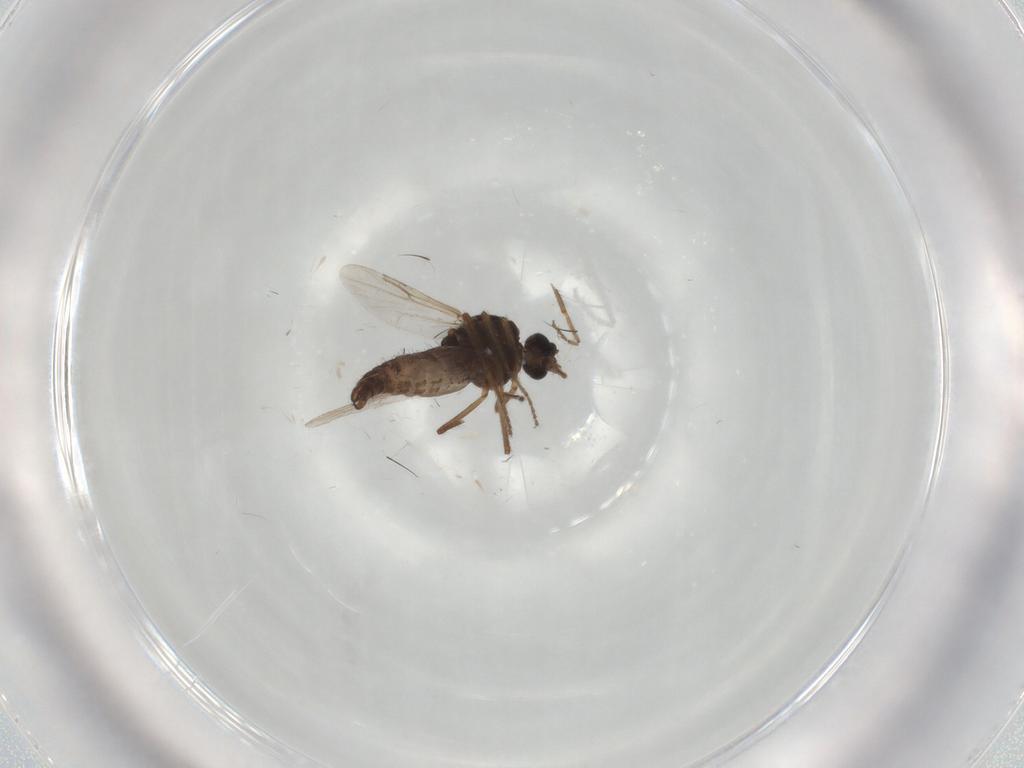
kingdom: Animalia
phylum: Arthropoda
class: Insecta
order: Diptera
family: Ceratopogonidae
